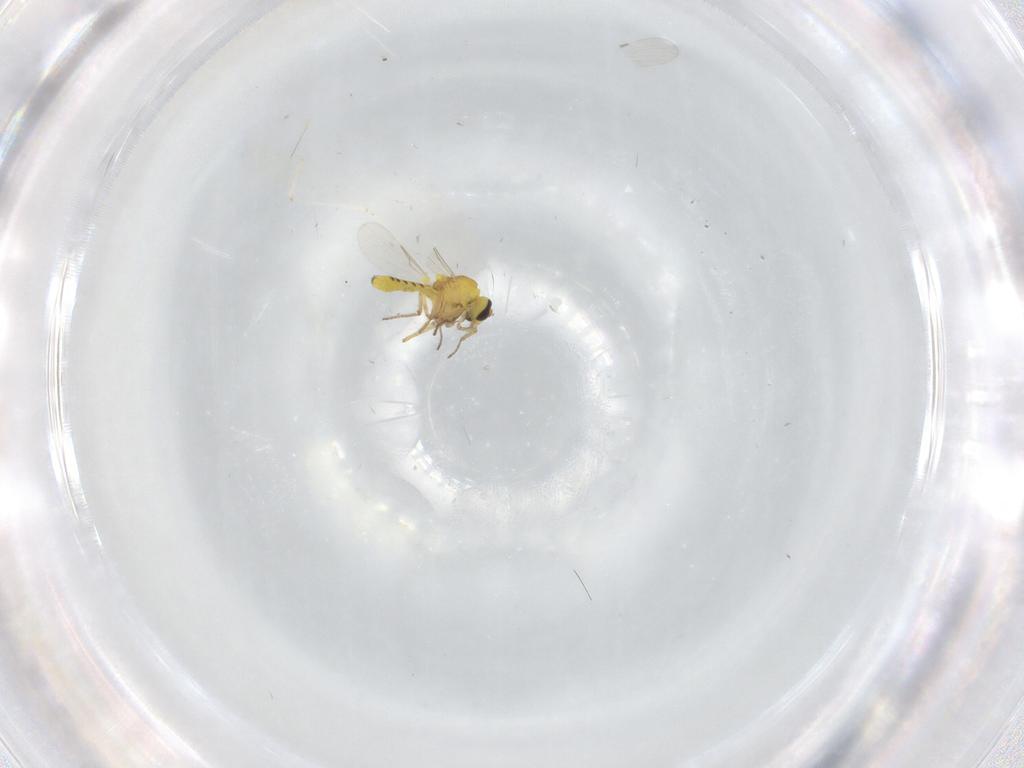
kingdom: Animalia
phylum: Arthropoda
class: Insecta
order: Diptera
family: Ceratopogonidae
